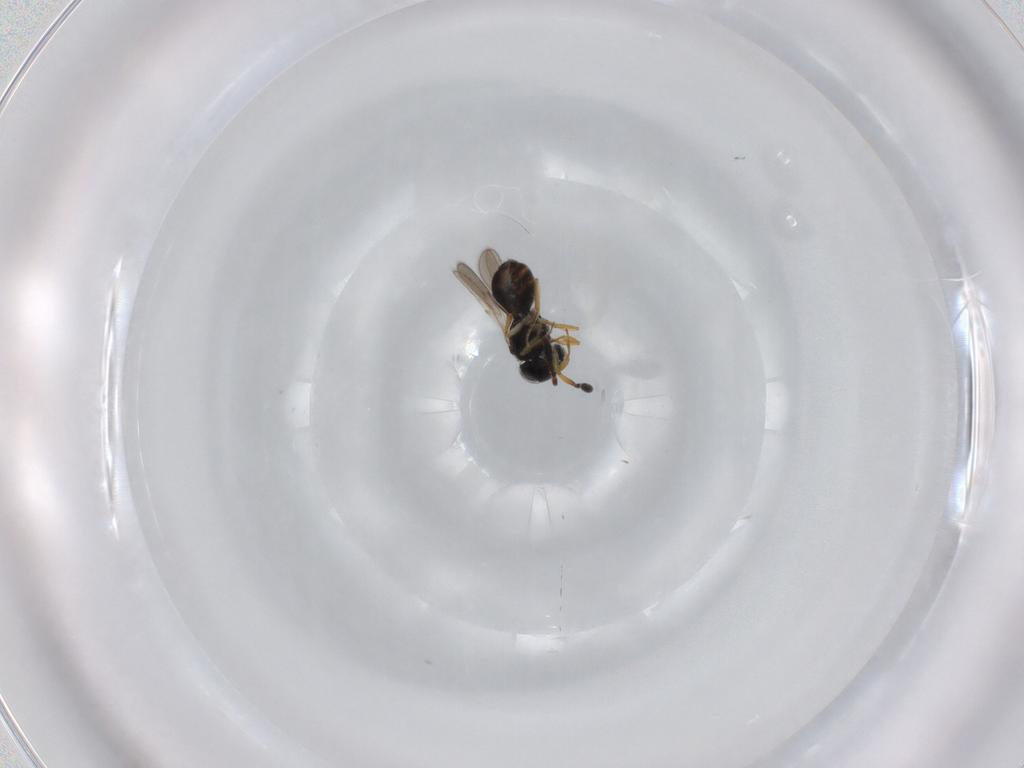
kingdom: Animalia
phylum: Arthropoda
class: Insecta
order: Hymenoptera
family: Scelionidae
